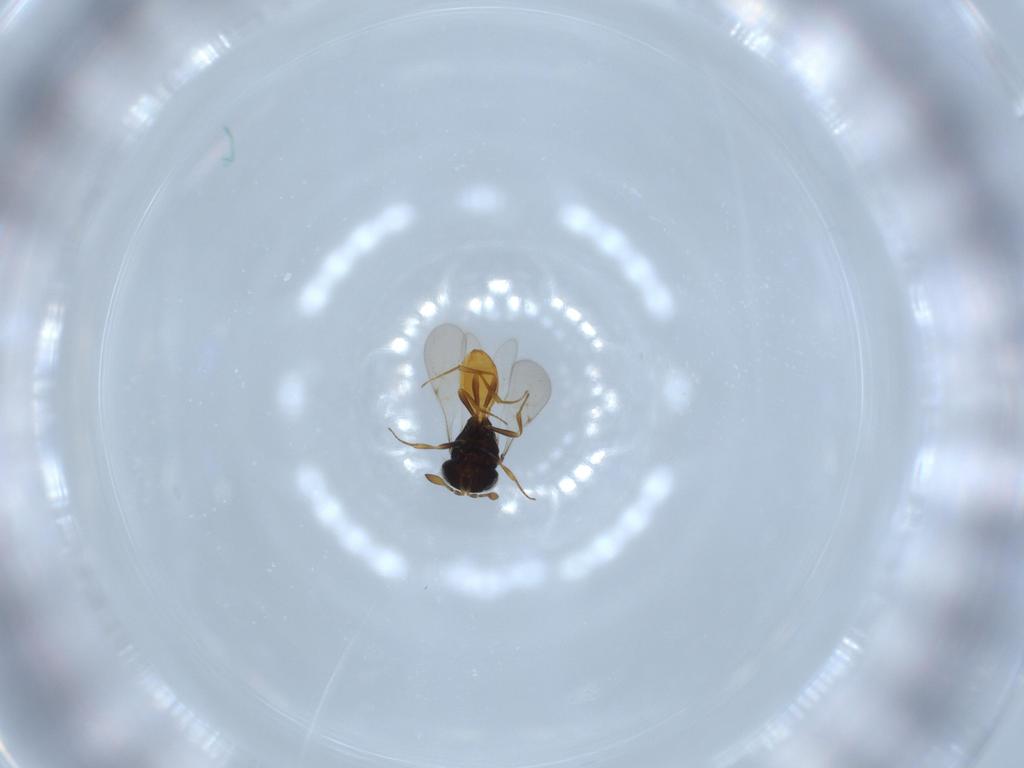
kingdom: Animalia
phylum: Arthropoda
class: Insecta
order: Hymenoptera
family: Scelionidae
